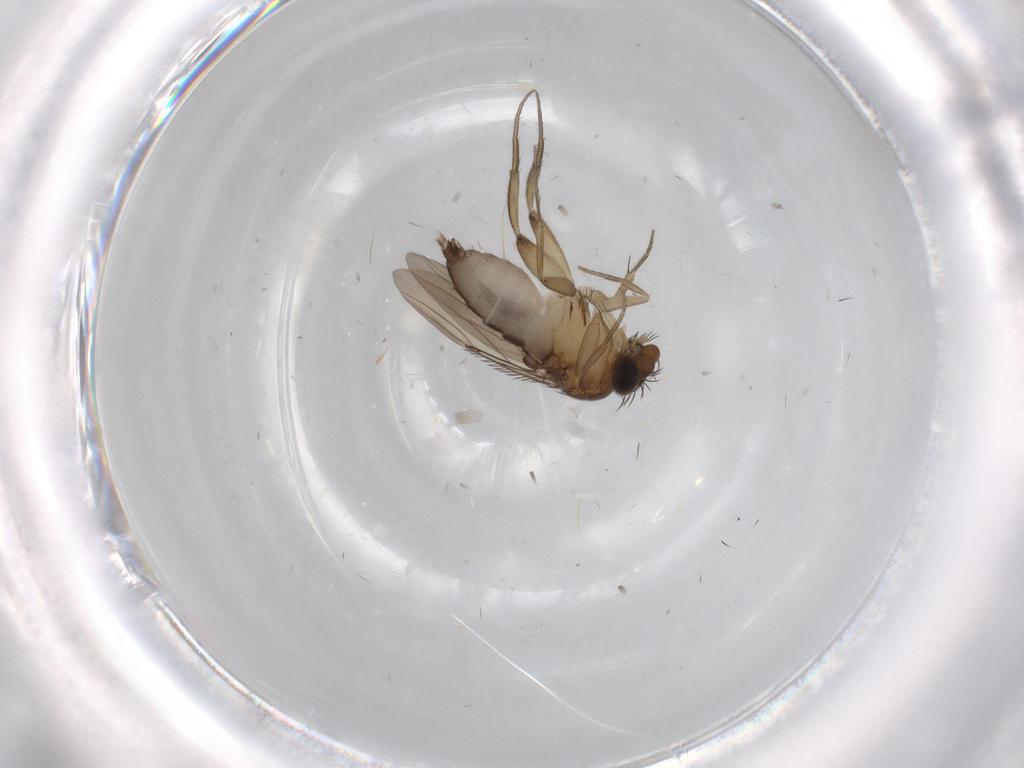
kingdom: Animalia
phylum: Arthropoda
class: Insecta
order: Diptera
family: Phoridae
